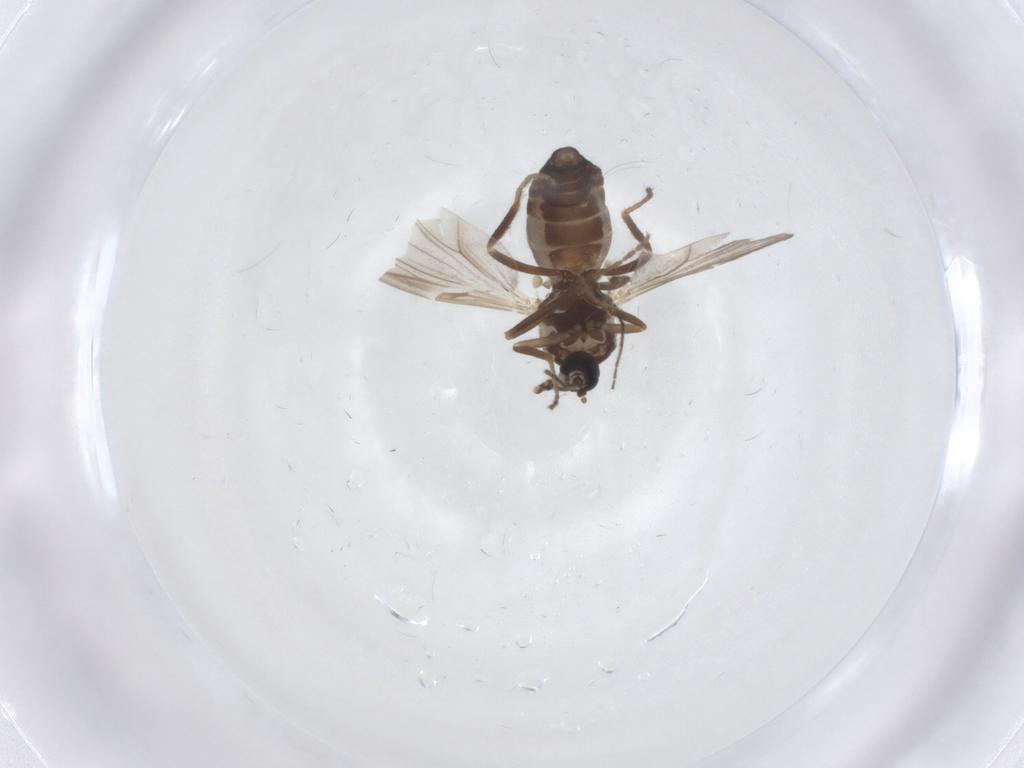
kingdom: Animalia
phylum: Arthropoda
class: Insecta
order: Diptera
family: Ceratopogonidae
